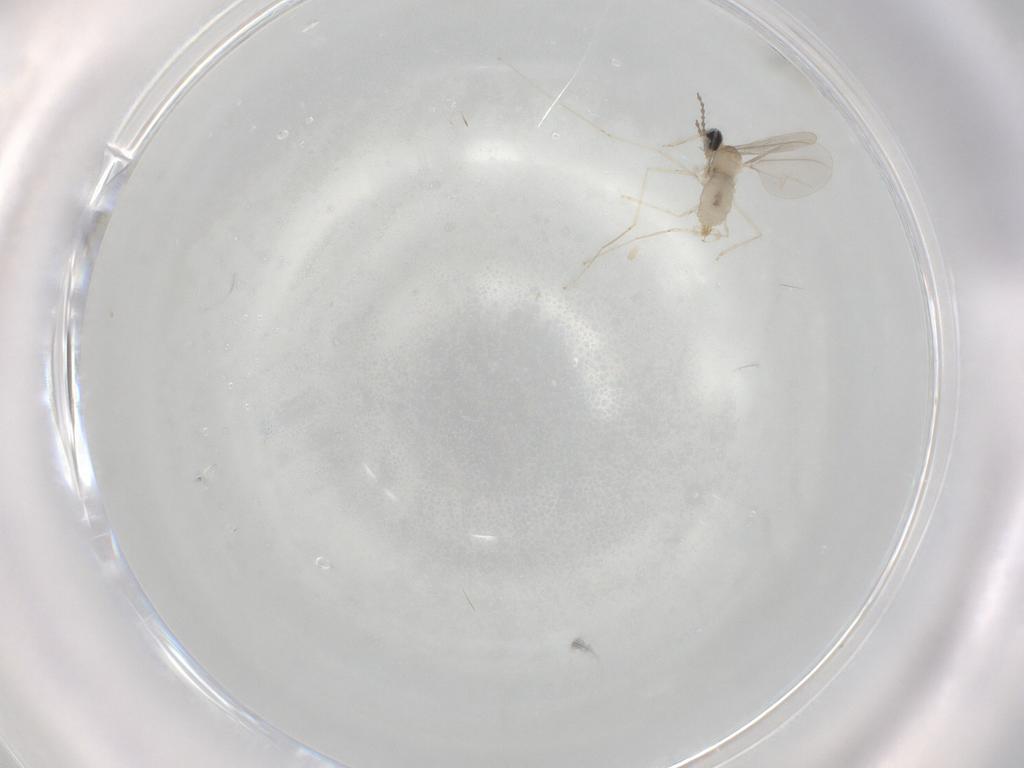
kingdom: Animalia
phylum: Arthropoda
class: Insecta
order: Diptera
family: Cecidomyiidae
